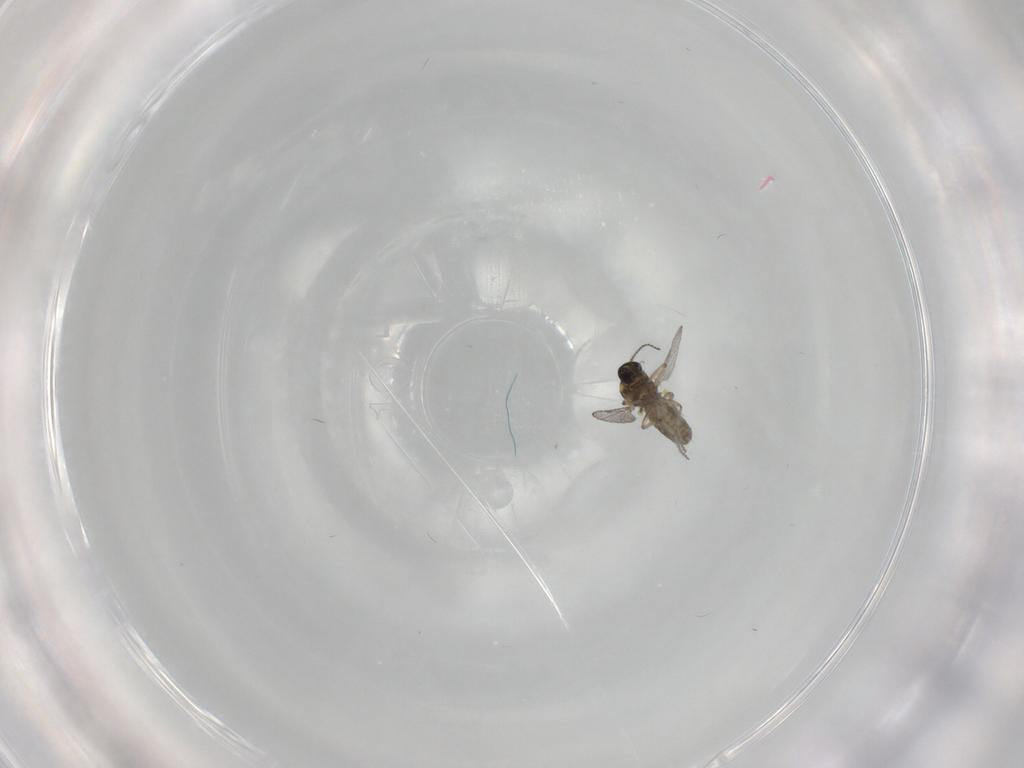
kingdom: Animalia
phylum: Arthropoda
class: Insecta
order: Diptera
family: Ceratopogonidae
